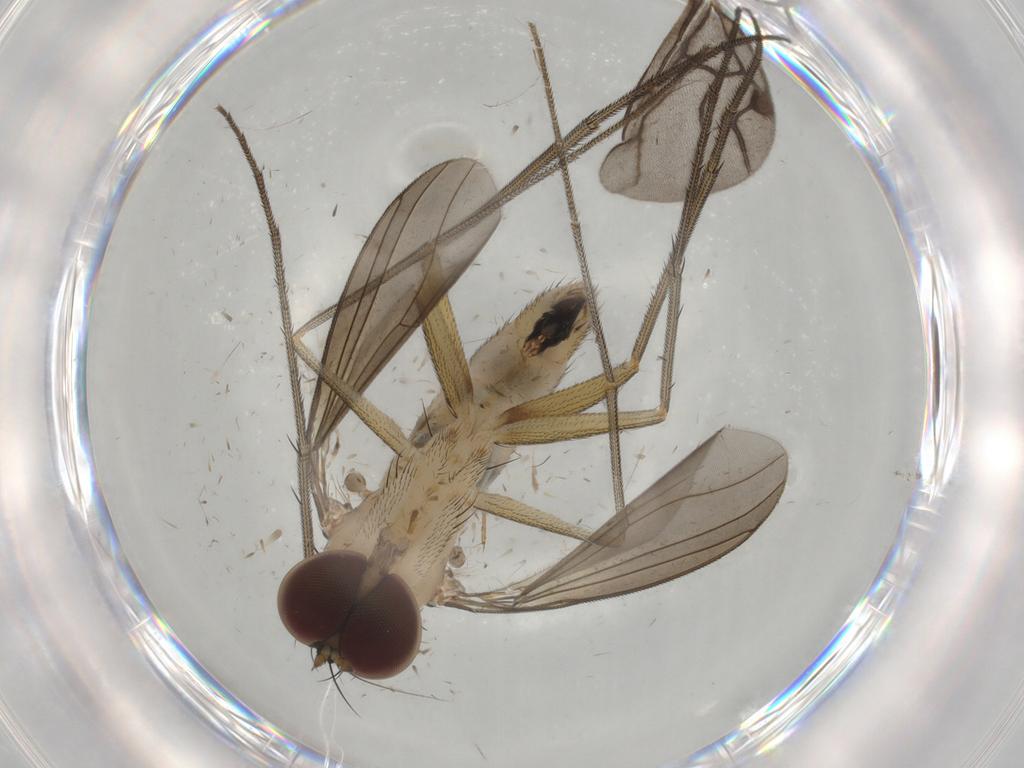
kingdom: Animalia
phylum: Arthropoda
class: Insecta
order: Diptera
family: Dolichopodidae
